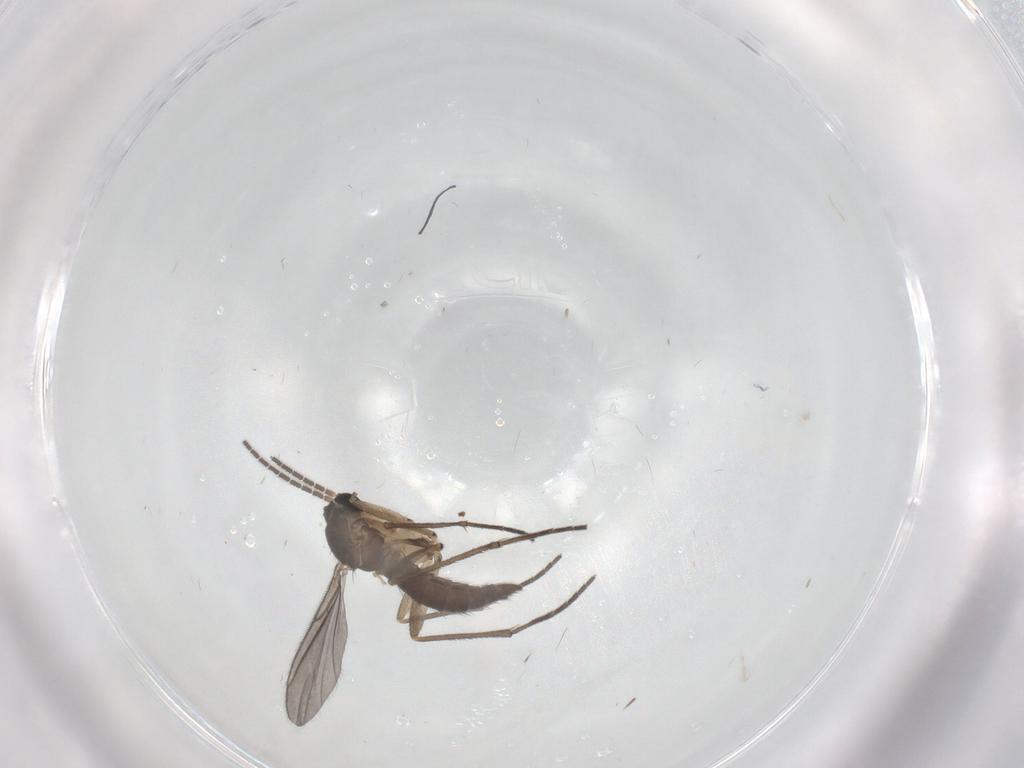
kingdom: Animalia
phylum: Arthropoda
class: Insecta
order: Diptera
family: Sciaridae
